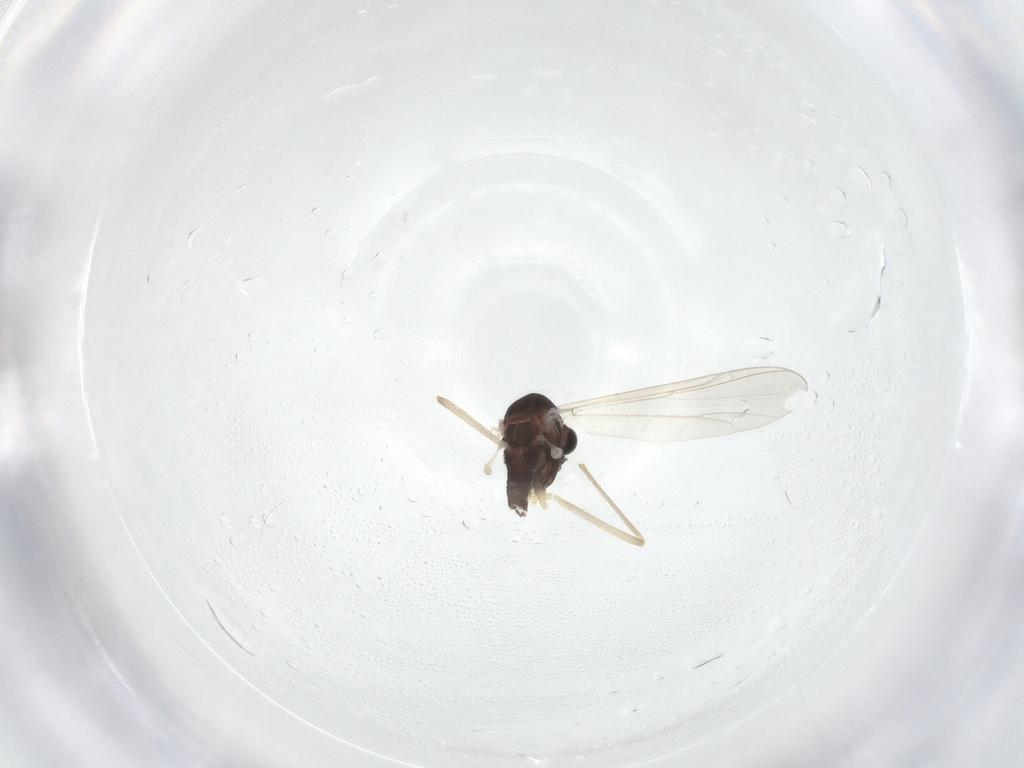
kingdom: Animalia
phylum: Arthropoda
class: Insecta
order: Diptera
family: Chironomidae
